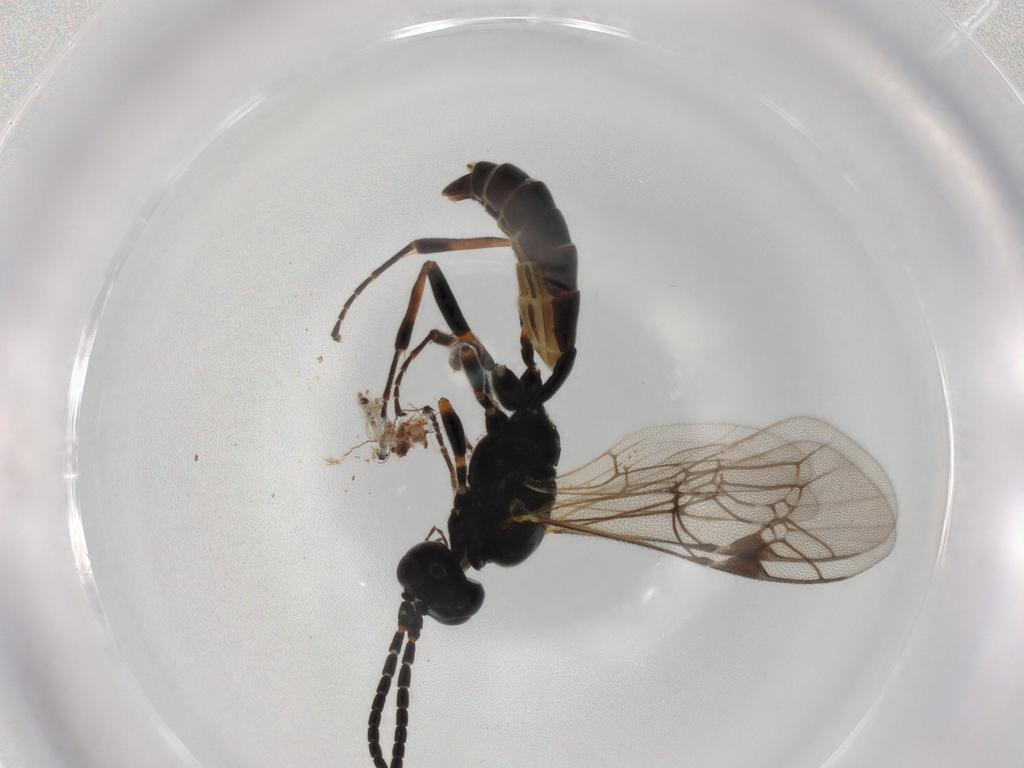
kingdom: Animalia
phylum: Arthropoda
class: Insecta
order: Hymenoptera
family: Ichneumonidae
